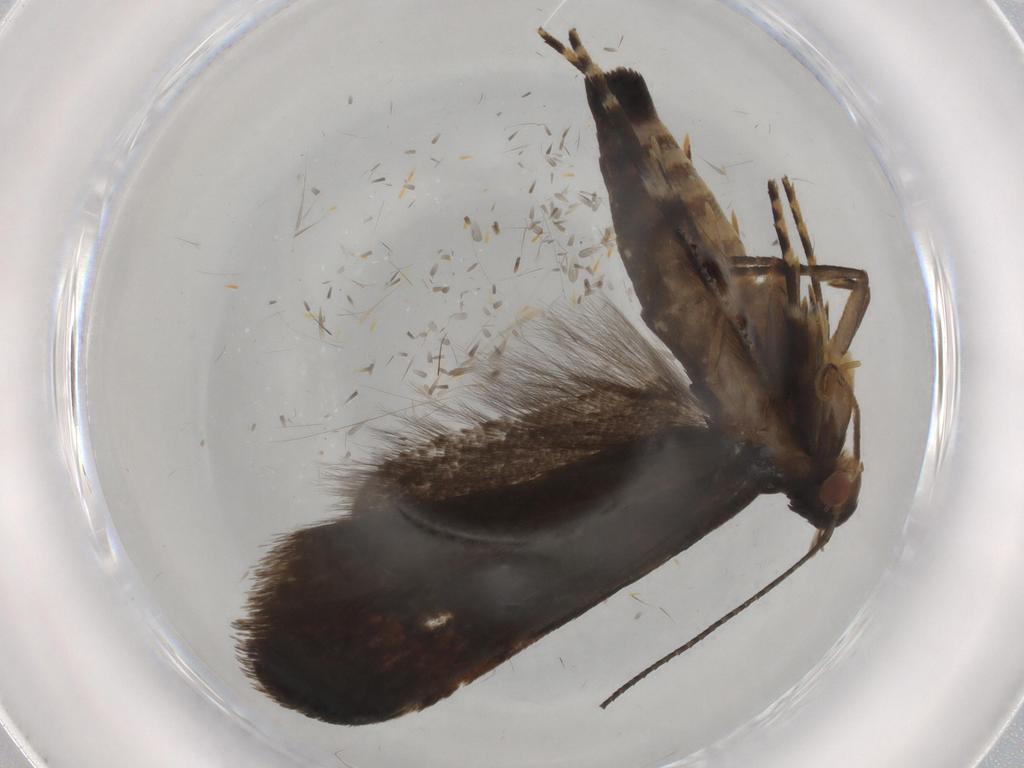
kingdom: Animalia
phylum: Arthropoda
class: Insecta
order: Lepidoptera
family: Gelechiidae
